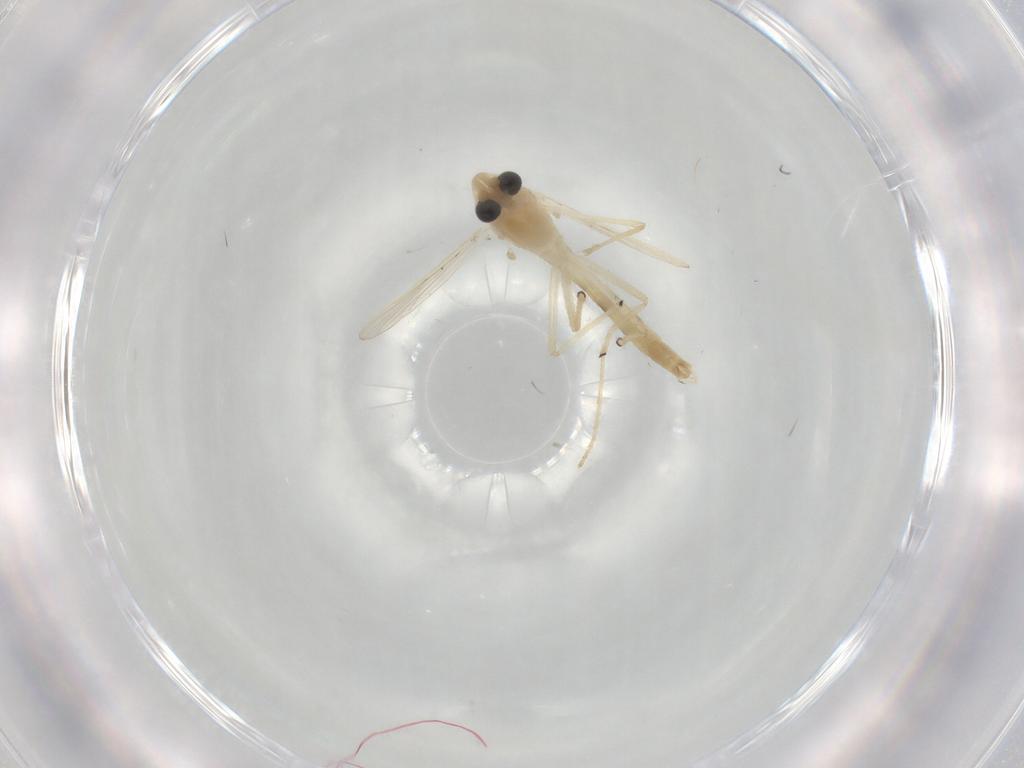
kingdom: Animalia
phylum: Arthropoda
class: Insecta
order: Diptera
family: Chironomidae
